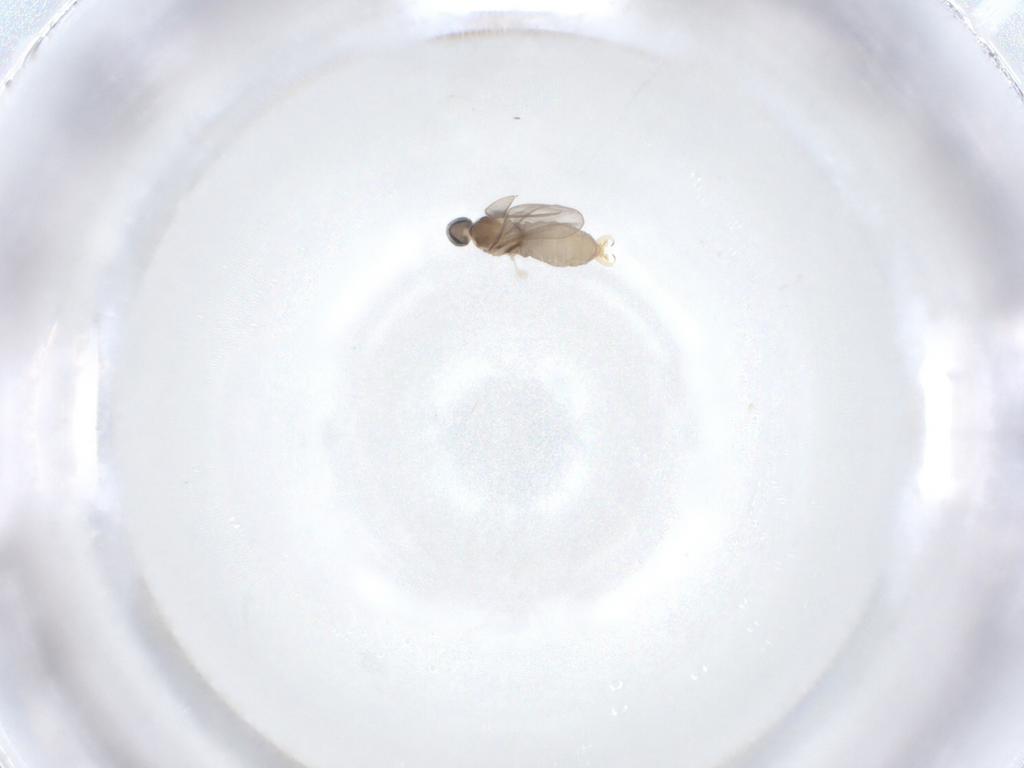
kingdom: Animalia
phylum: Arthropoda
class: Insecta
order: Diptera
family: Cecidomyiidae
